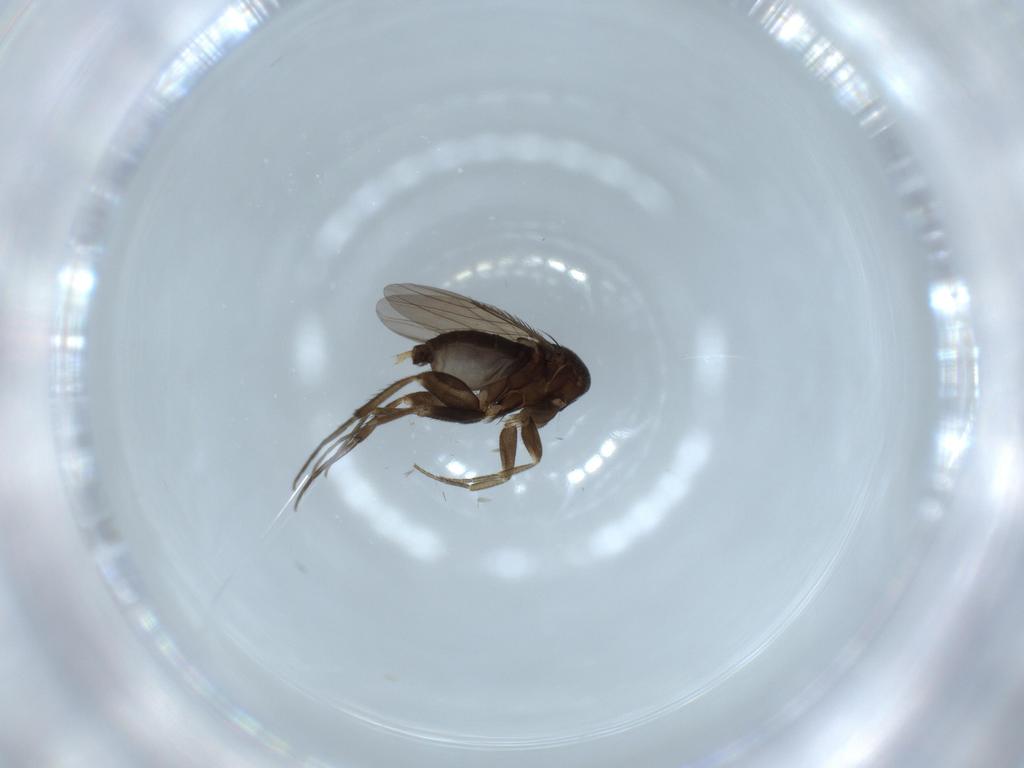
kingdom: Animalia
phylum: Arthropoda
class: Insecta
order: Diptera
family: Phoridae
